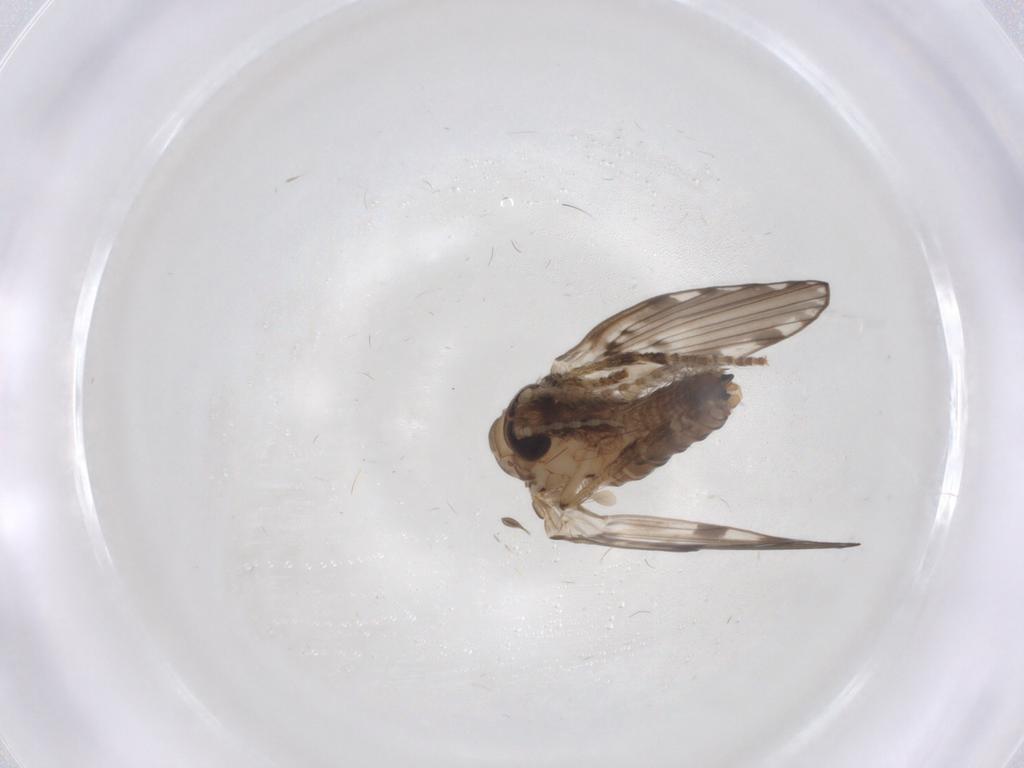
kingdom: Animalia
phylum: Arthropoda
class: Insecta
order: Diptera
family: Psychodidae
